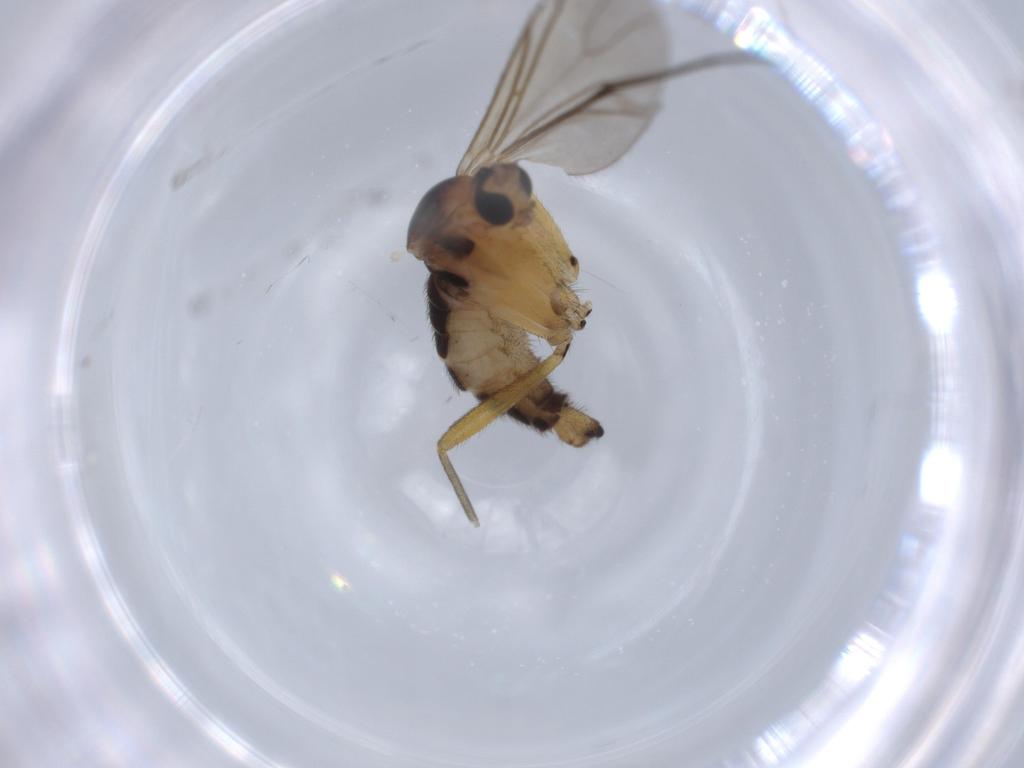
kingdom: Animalia
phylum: Arthropoda
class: Insecta
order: Diptera
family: Sciaridae
